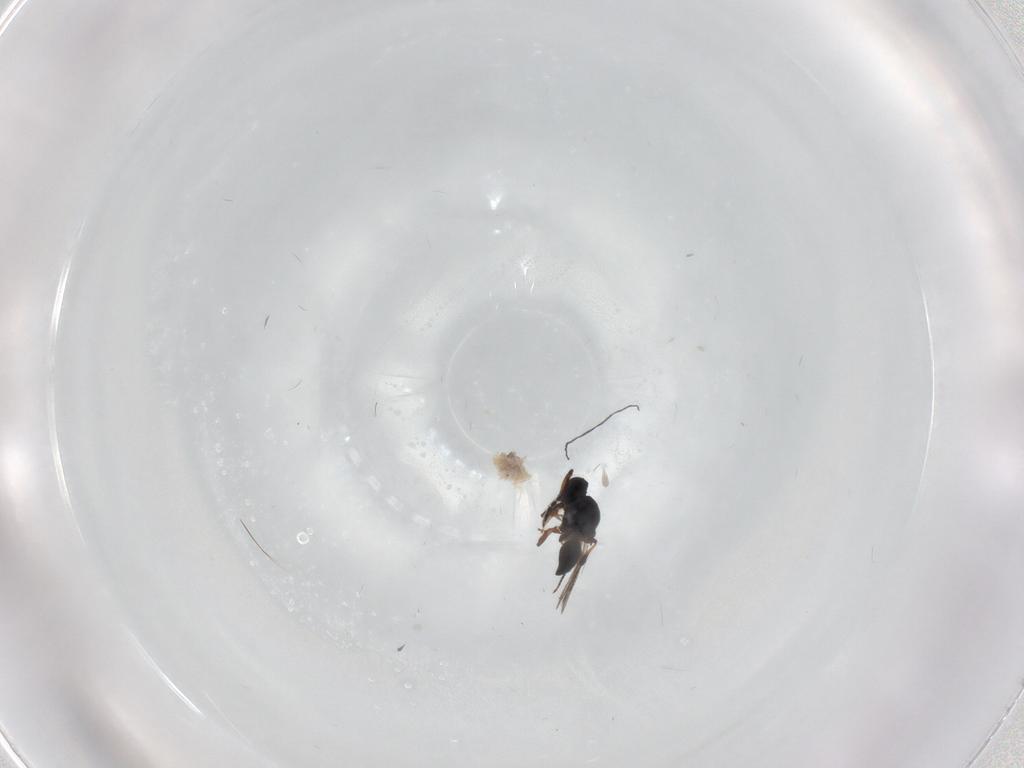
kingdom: Animalia
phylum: Arthropoda
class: Insecta
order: Hymenoptera
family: Platygastridae
